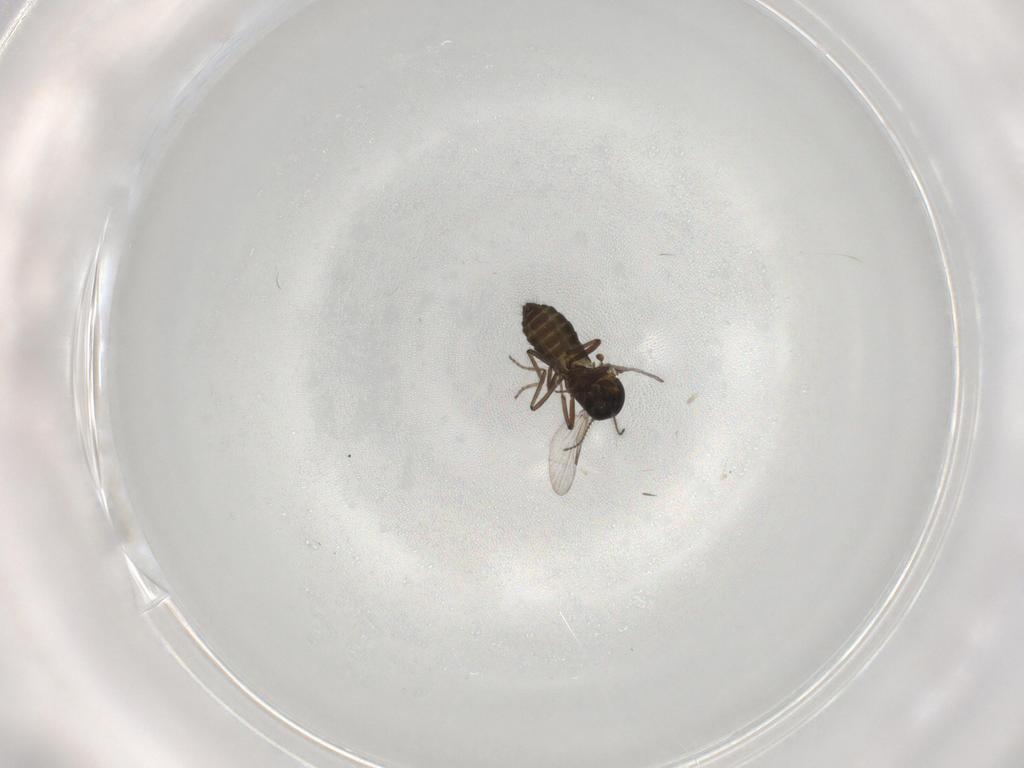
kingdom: Animalia
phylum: Arthropoda
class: Insecta
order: Diptera
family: Ceratopogonidae
